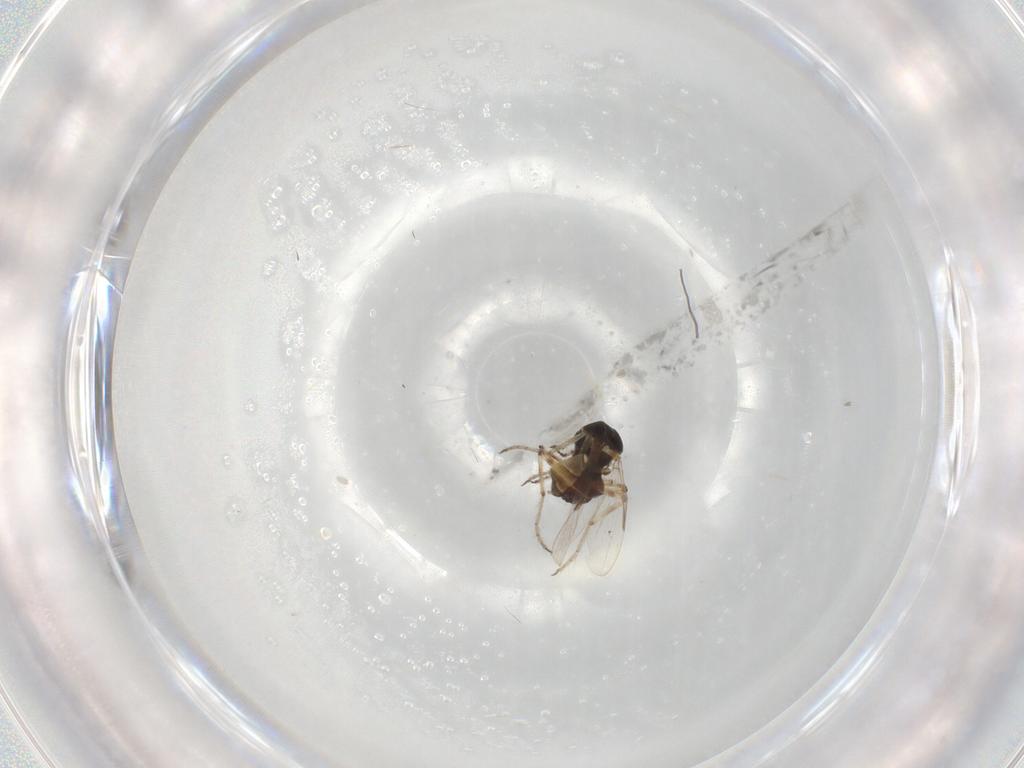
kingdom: Animalia
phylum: Arthropoda
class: Insecta
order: Diptera
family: Ceratopogonidae
